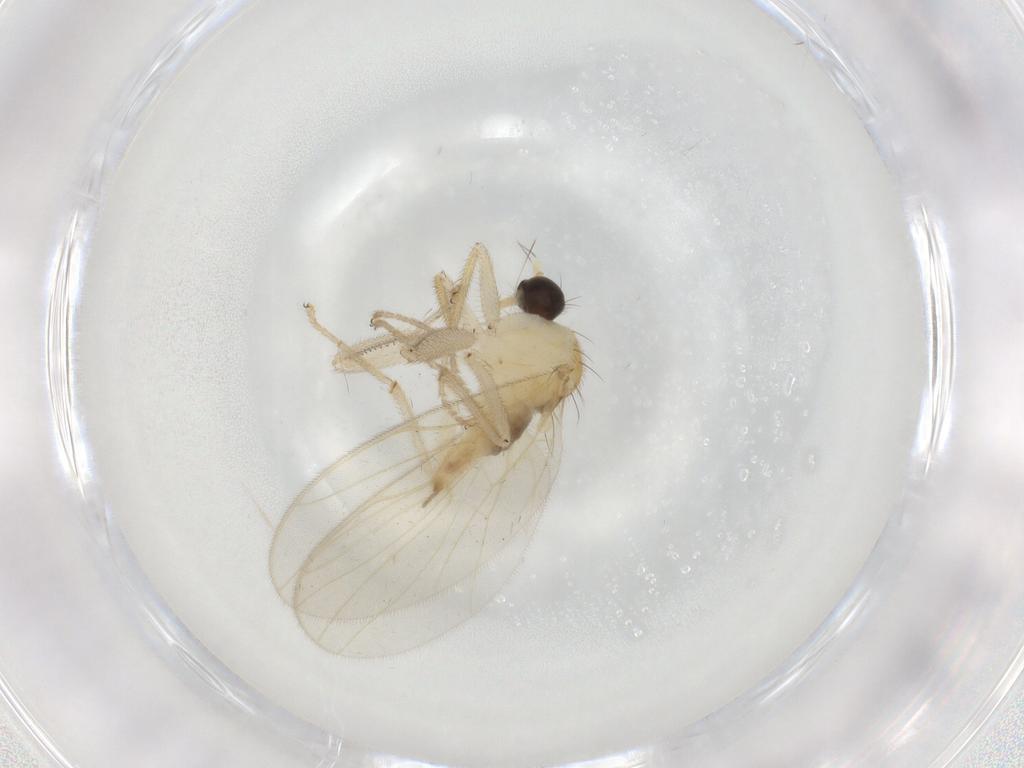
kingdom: Animalia
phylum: Arthropoda
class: Insecta
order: Diptera
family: Hybotidae
